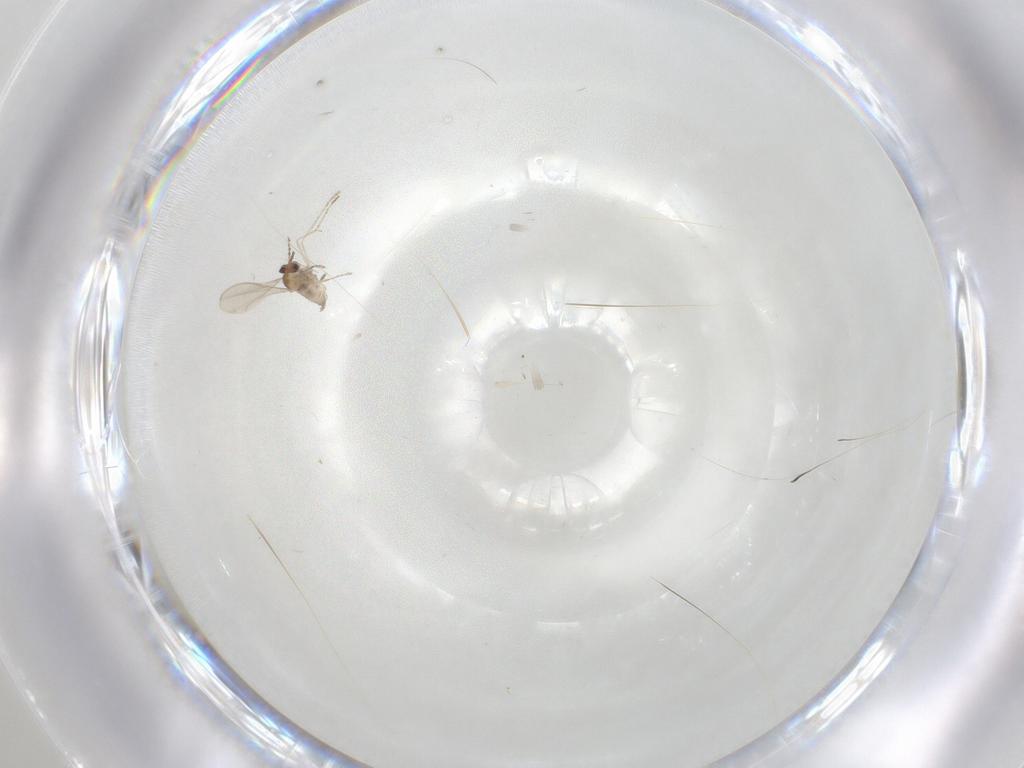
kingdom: Animalia
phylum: Arthropoda
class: Insecta
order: Diptera
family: Cecidomyiidae
